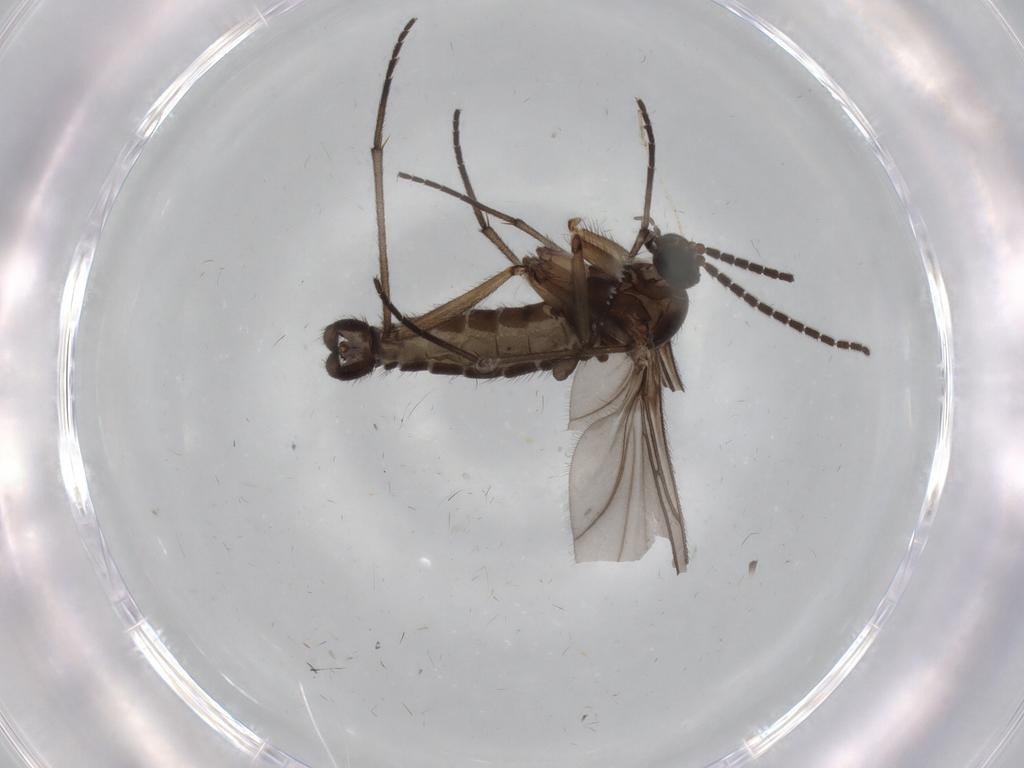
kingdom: Animalia
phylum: Arthropoda
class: Insecta
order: Diptera
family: Sciaridae
